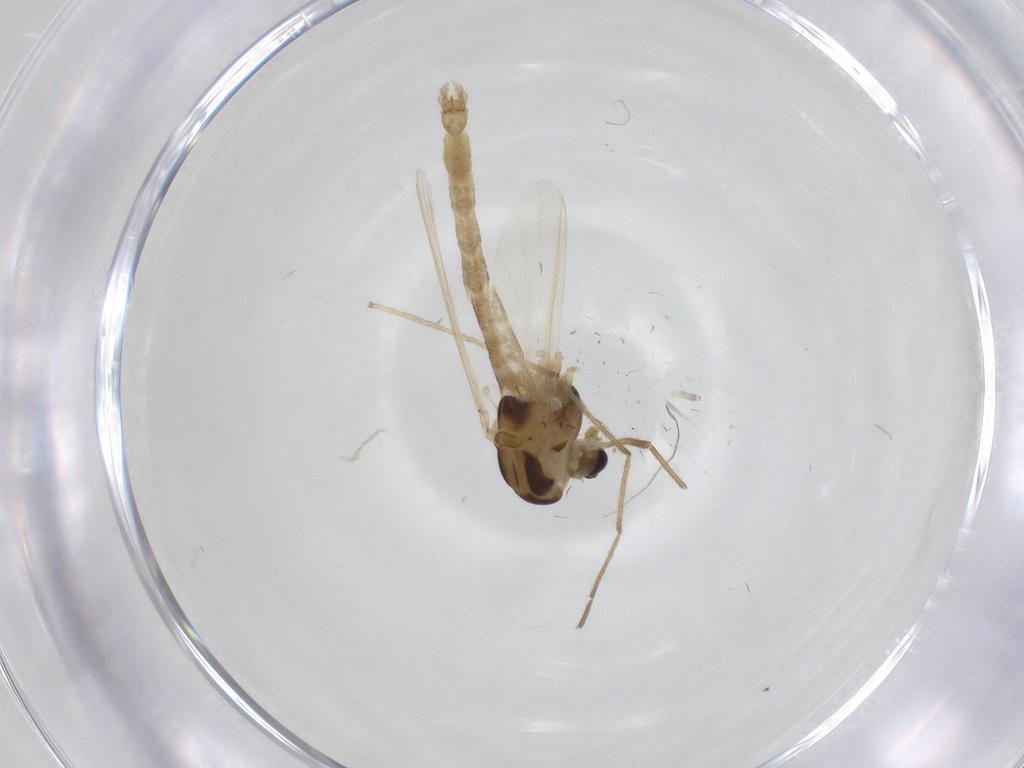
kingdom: Animalia
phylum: Arthropoda
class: Insecta
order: Diptera
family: Chironomidae
